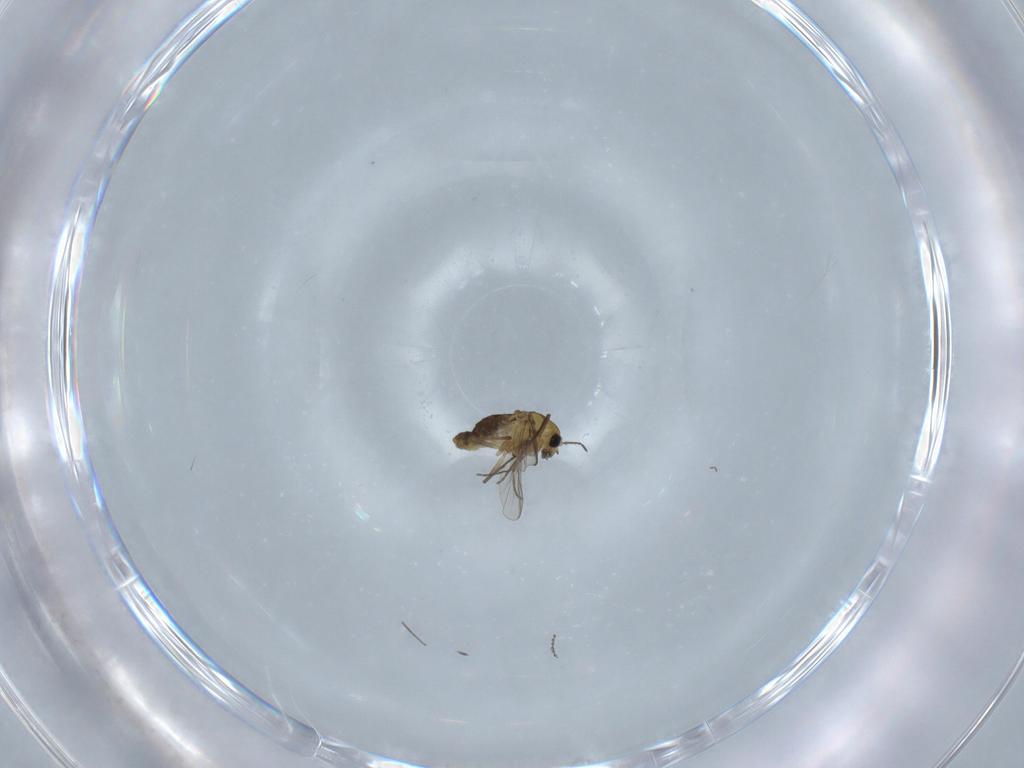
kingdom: Animalia
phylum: Arthropoda
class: Insecta
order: Diptera
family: Chironomidae
